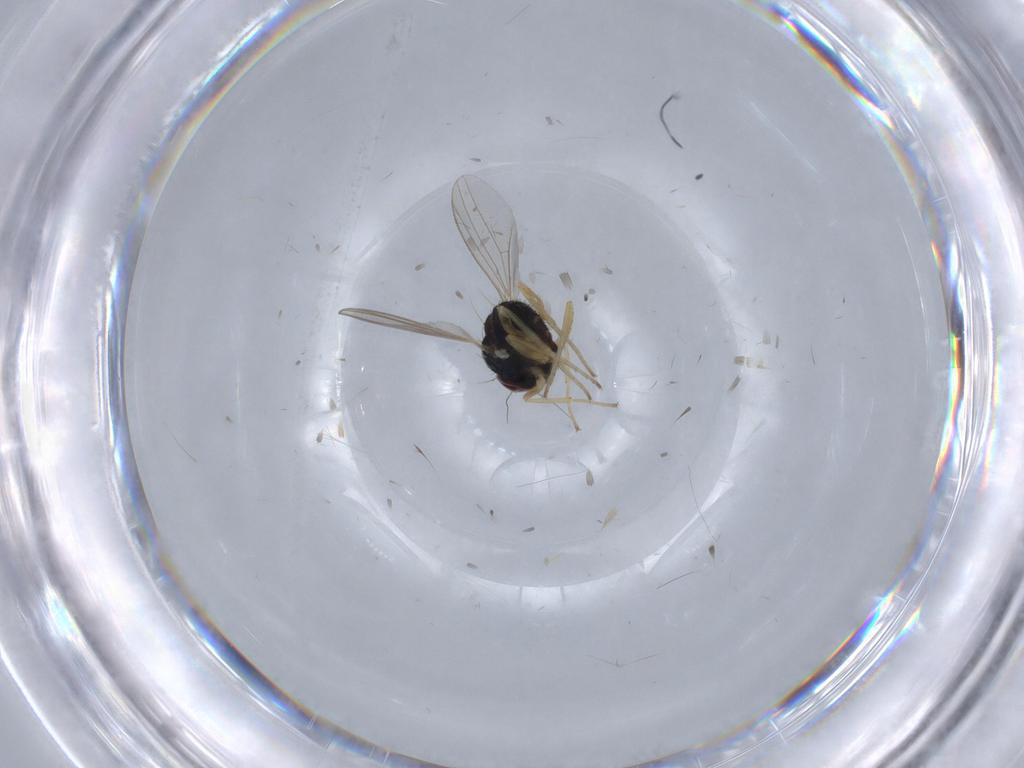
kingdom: Animalia
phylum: Arthropoda
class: Insecta
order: Diptera
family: Dolichopodidae
